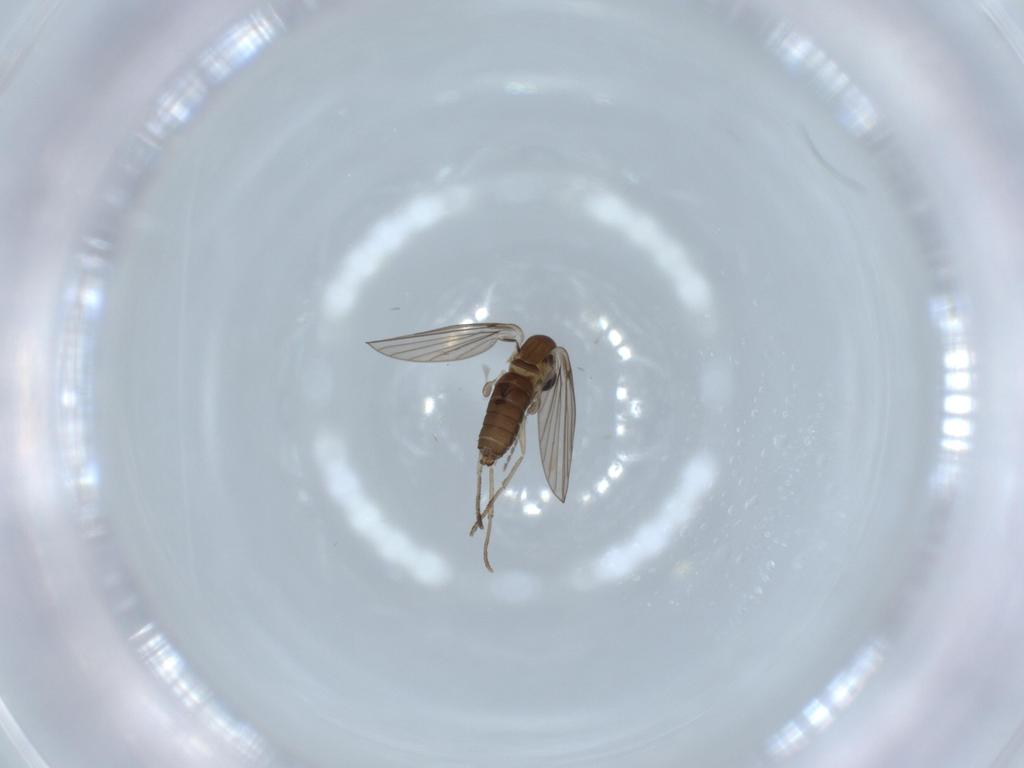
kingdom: Animalia
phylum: Arthropoda
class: Insecta
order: Diptera
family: Psychodidae
